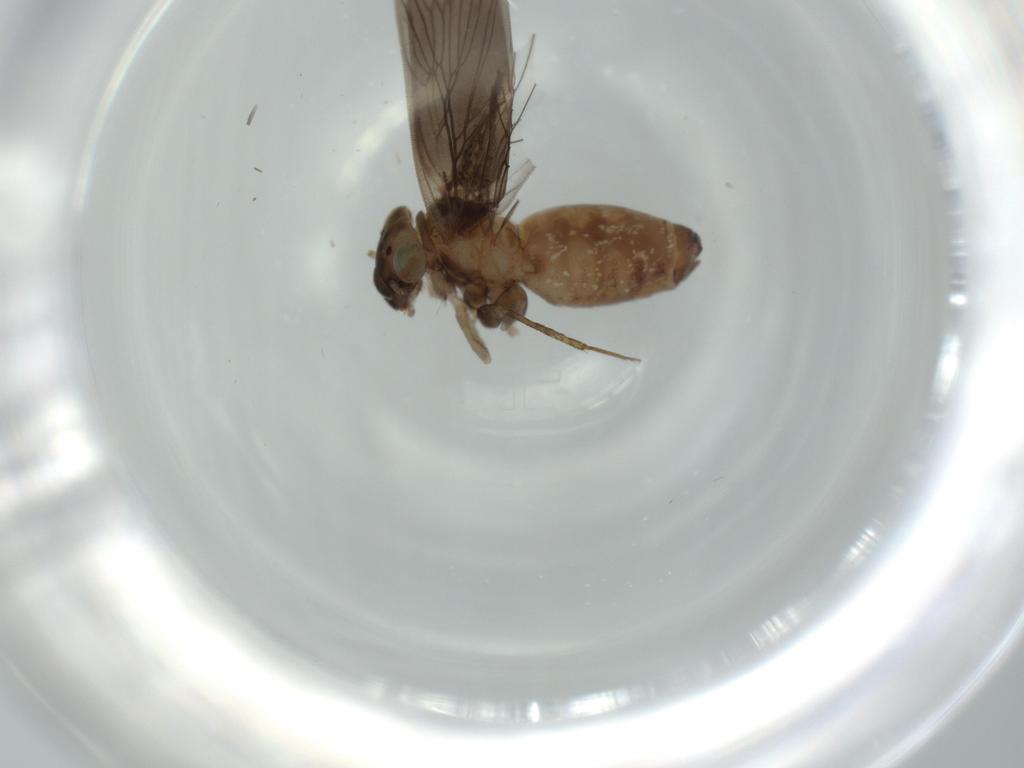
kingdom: Animalia
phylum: Arthropoda
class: Insecta
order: Psocodea
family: Lepidopsocidae
